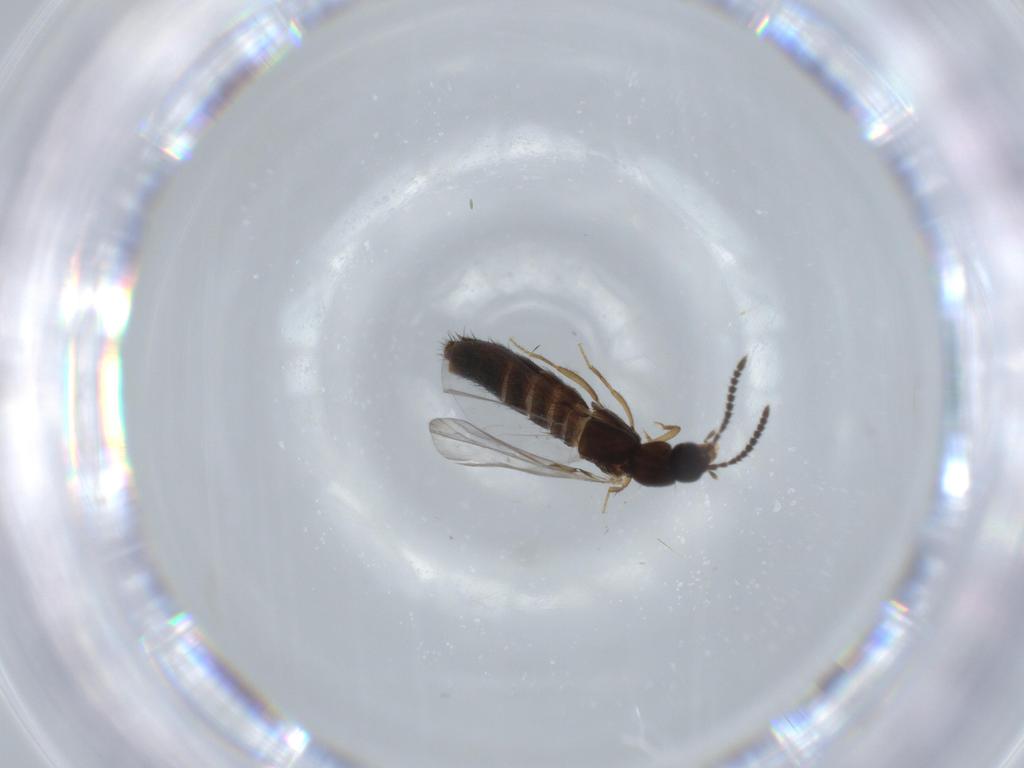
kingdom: Animalia
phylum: Arthropoda
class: Insecta
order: Coleoptera
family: Staphylinidae
